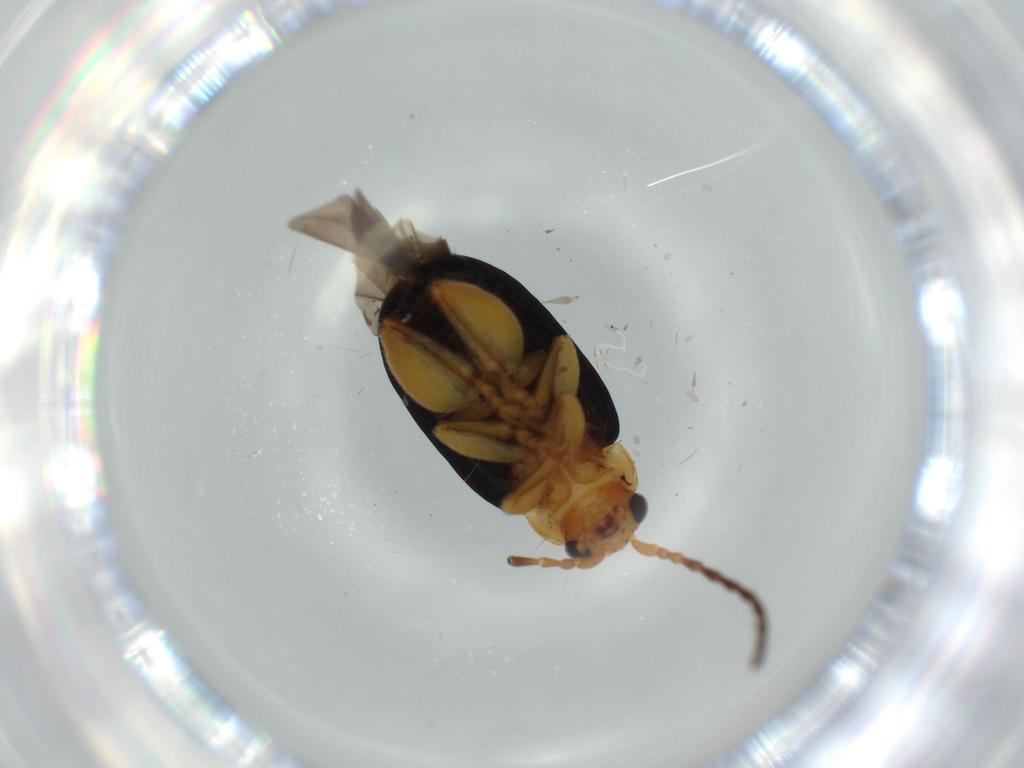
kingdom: Animalia
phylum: Arthropoda
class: Insecta
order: Coleoptera
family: Chrysomelidae
